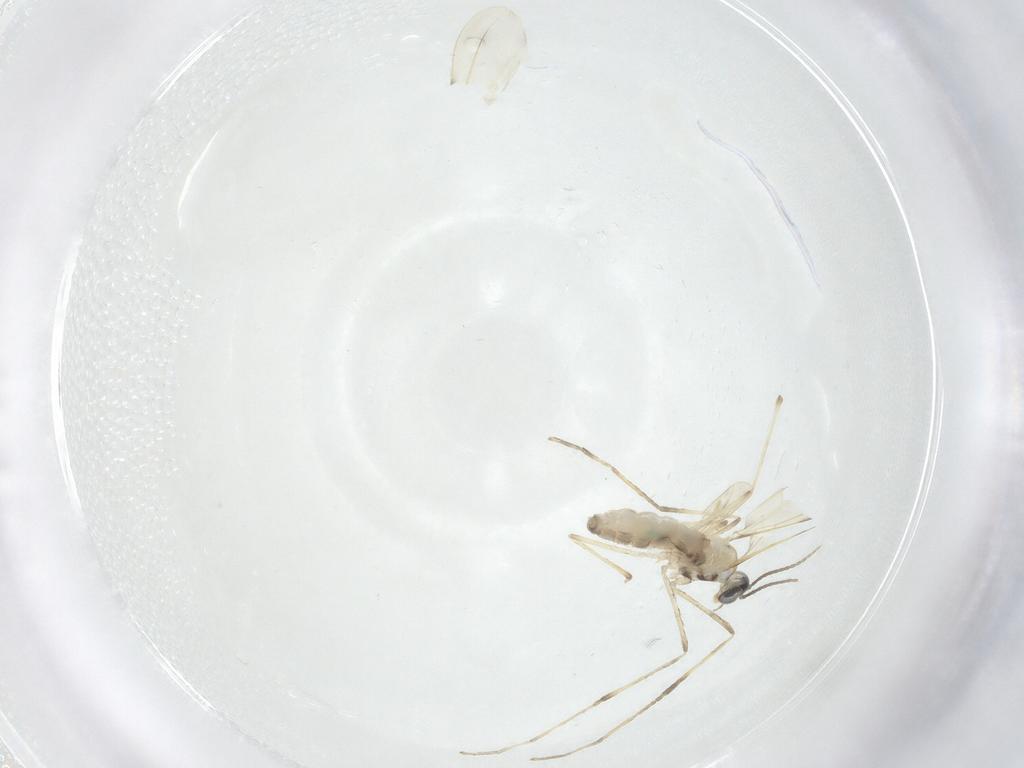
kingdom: Animalia
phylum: Arthropoda
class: Insecta
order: Diptera
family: Cecidomyiidae
